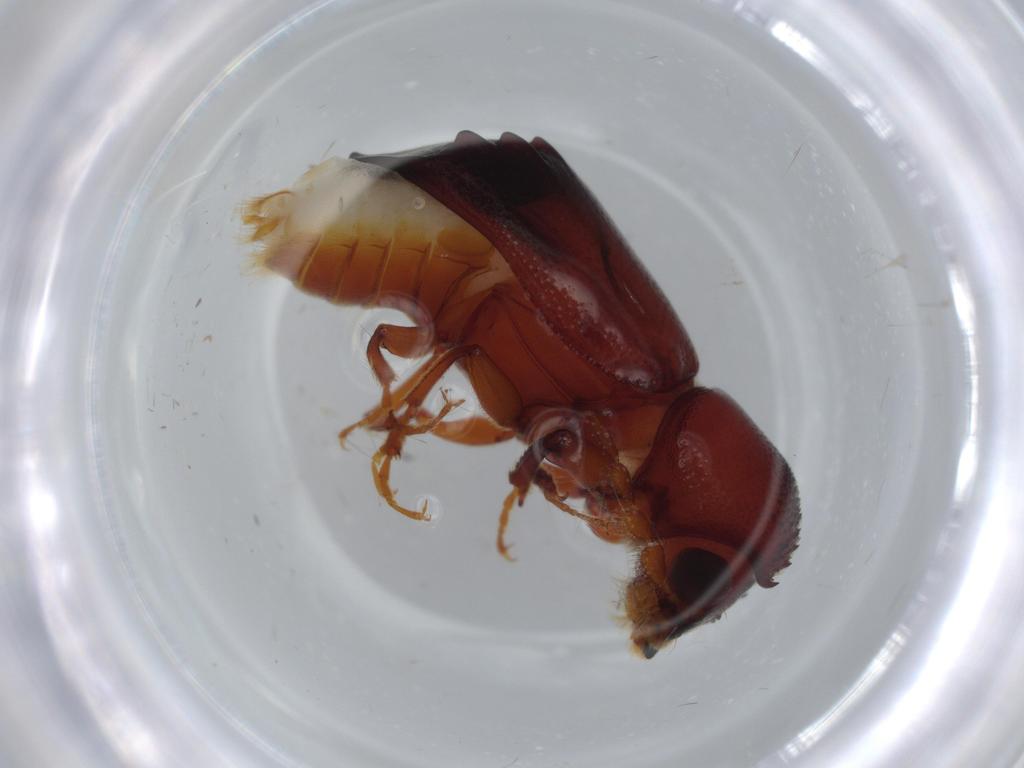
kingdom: Animalia
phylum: Arthropoda
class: Insecta
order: Coleoptera
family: Bostrichidae
